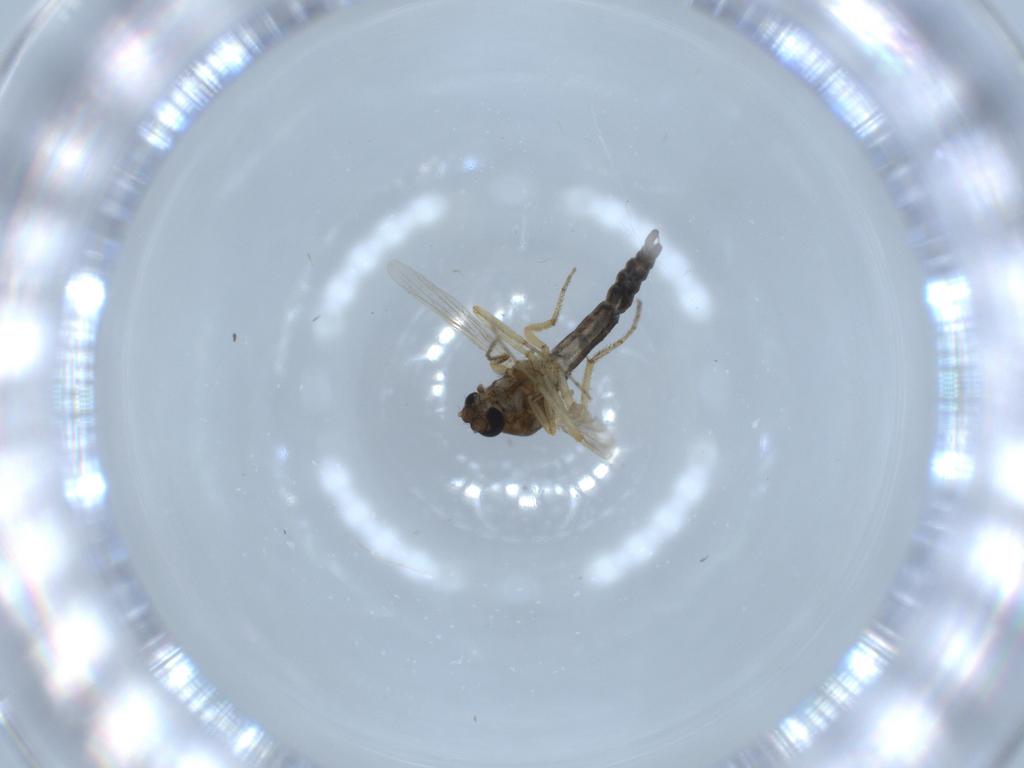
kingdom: Animalia
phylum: Arthropoda
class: Insecta
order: Diptera
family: Ceratopogonidae
